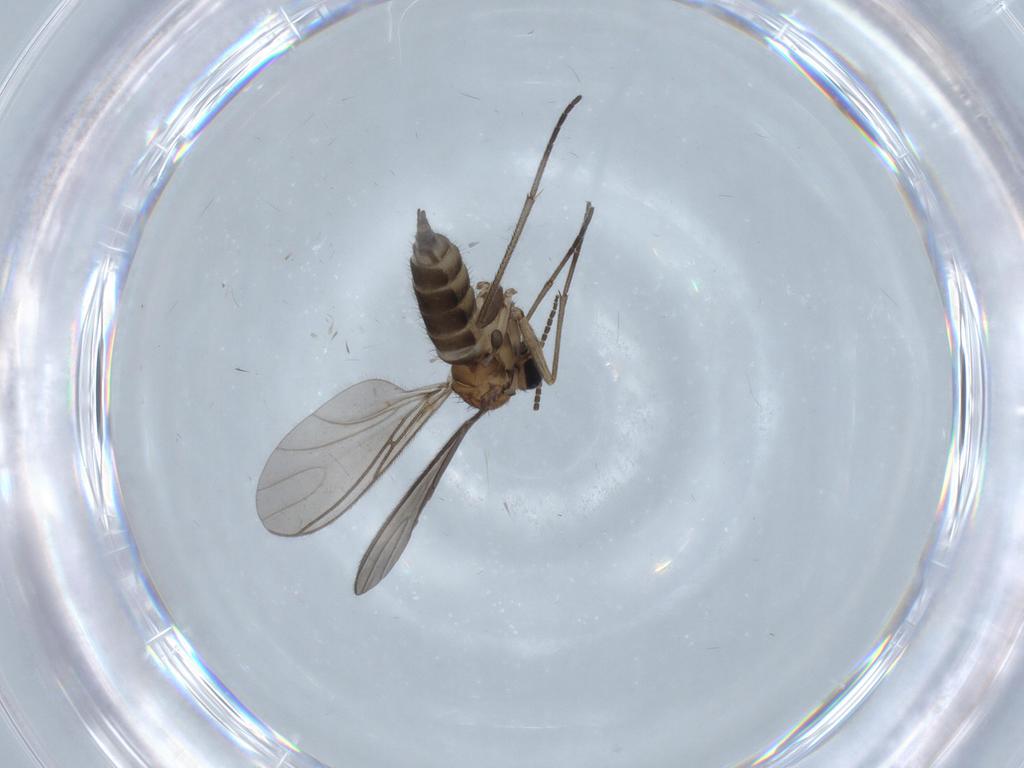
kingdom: Animalia
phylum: Arthropoda
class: Insecta
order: Diptera
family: Sciaridae
